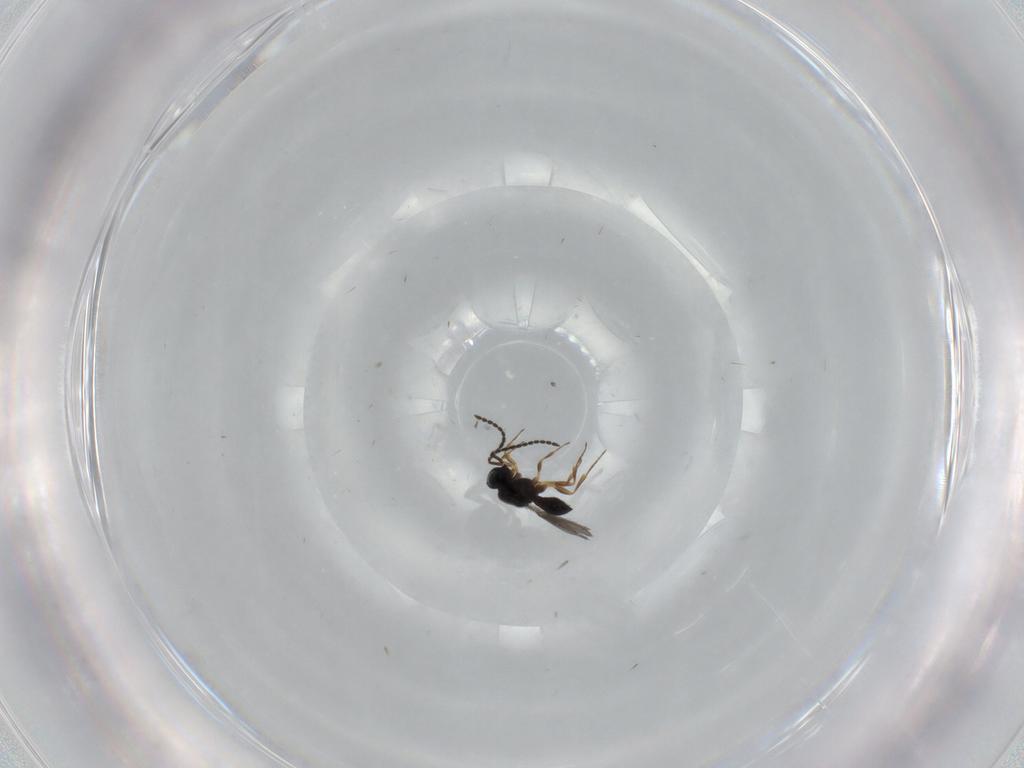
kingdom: Animalia
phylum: Arthropoda
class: Insecta
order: Hymenoptera
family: Scelionidae
